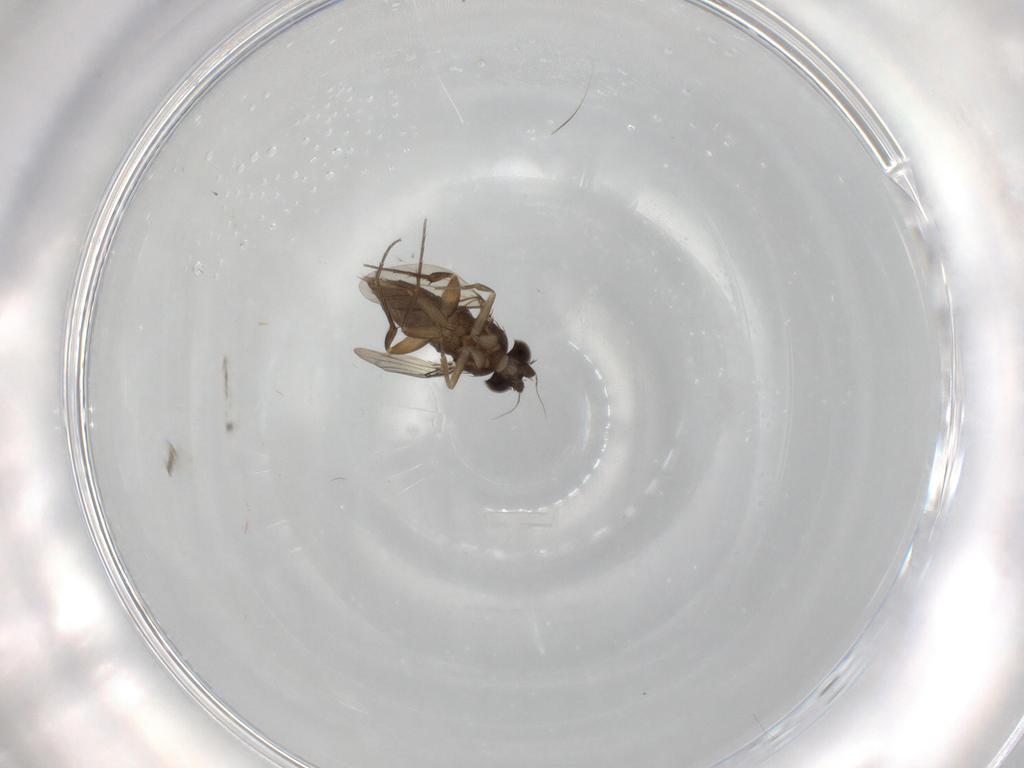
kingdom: Animalia
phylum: Arthropoda
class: Insecta
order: Diptera
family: Phoridae
